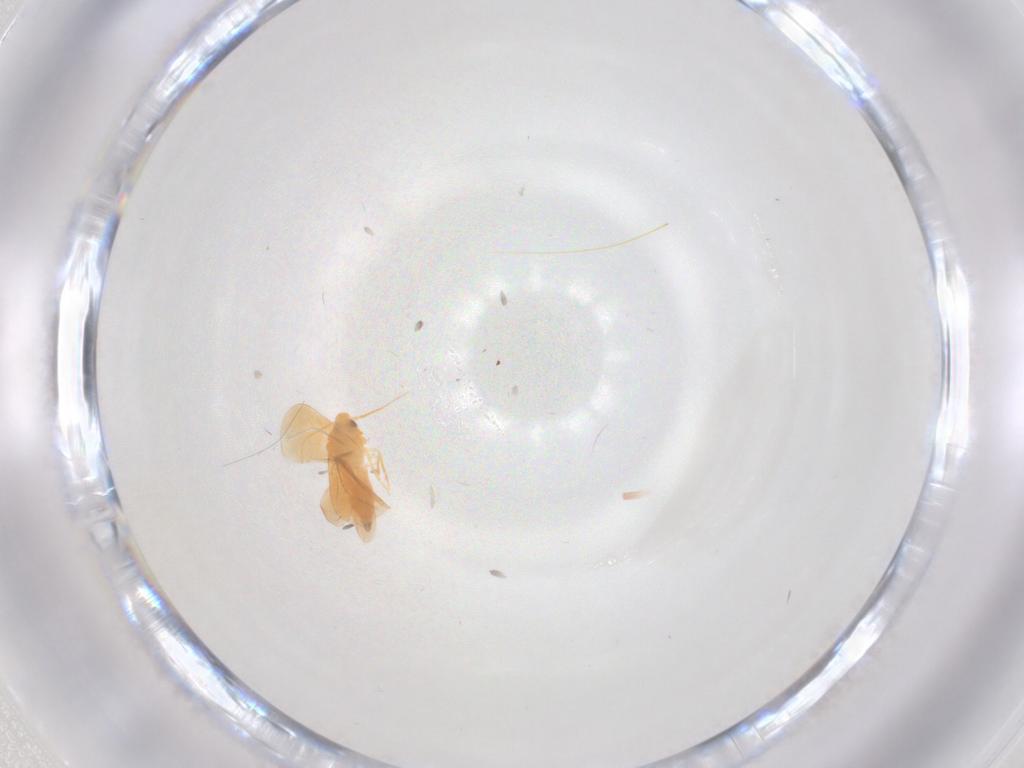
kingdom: Animalia
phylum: Arthropoda
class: Insecta
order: Hemiptera
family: Aleyrodidae
